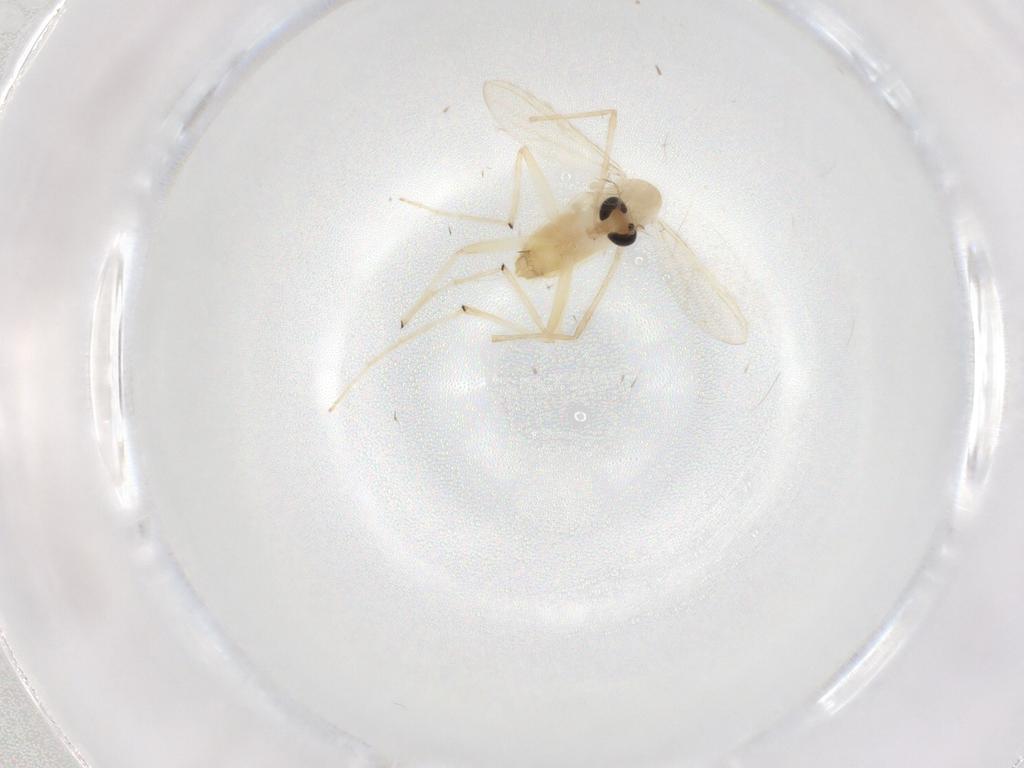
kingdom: Animalia
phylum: Arthropoda
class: Insecta
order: Diptera
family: Chironomidae
